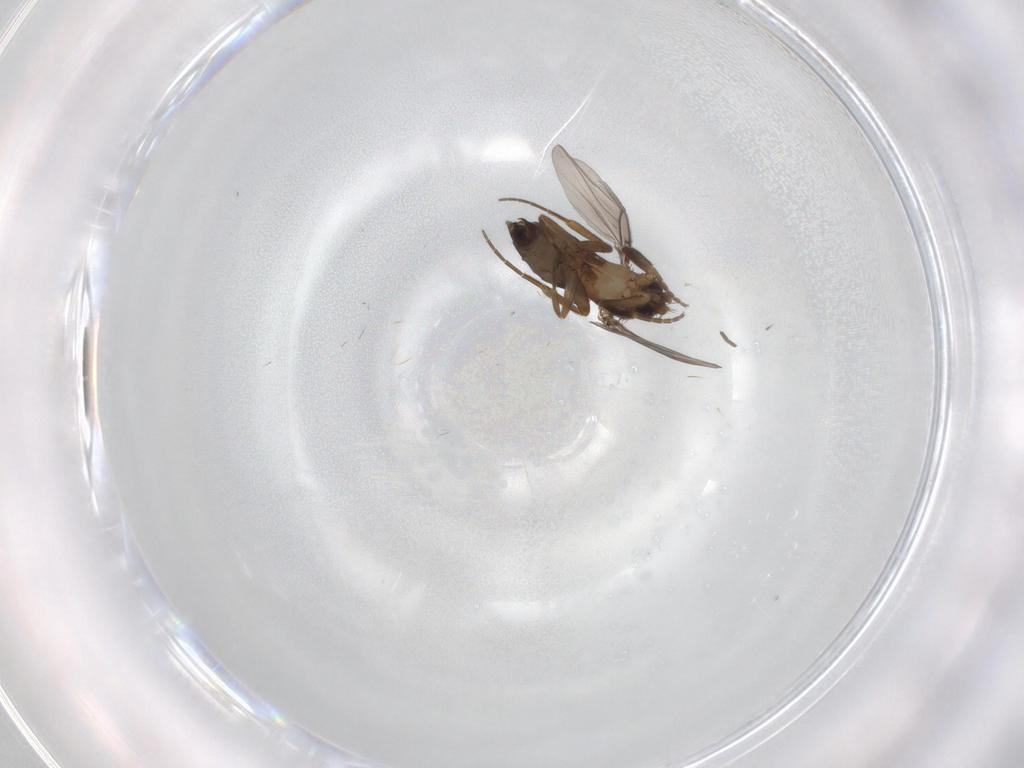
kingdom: Animalia
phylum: Arthropoda
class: Insecta
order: Diptera
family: Phoridae
